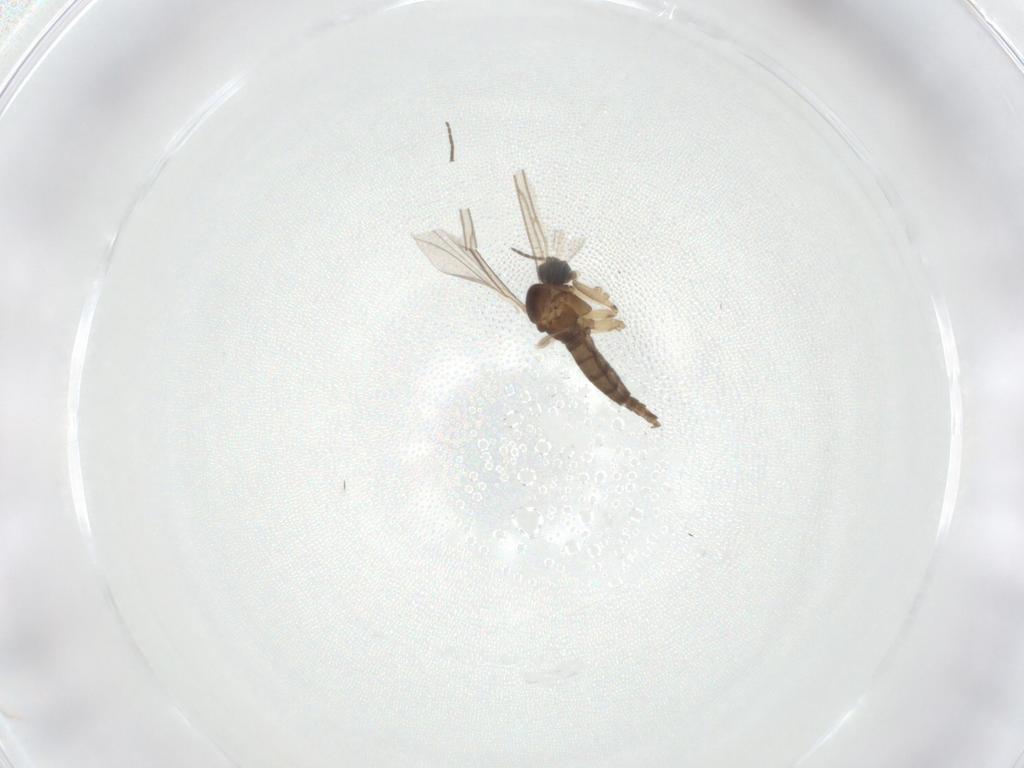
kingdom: Animalia
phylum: Arthropoda
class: Insecta
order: Diptera
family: Sciaridae
